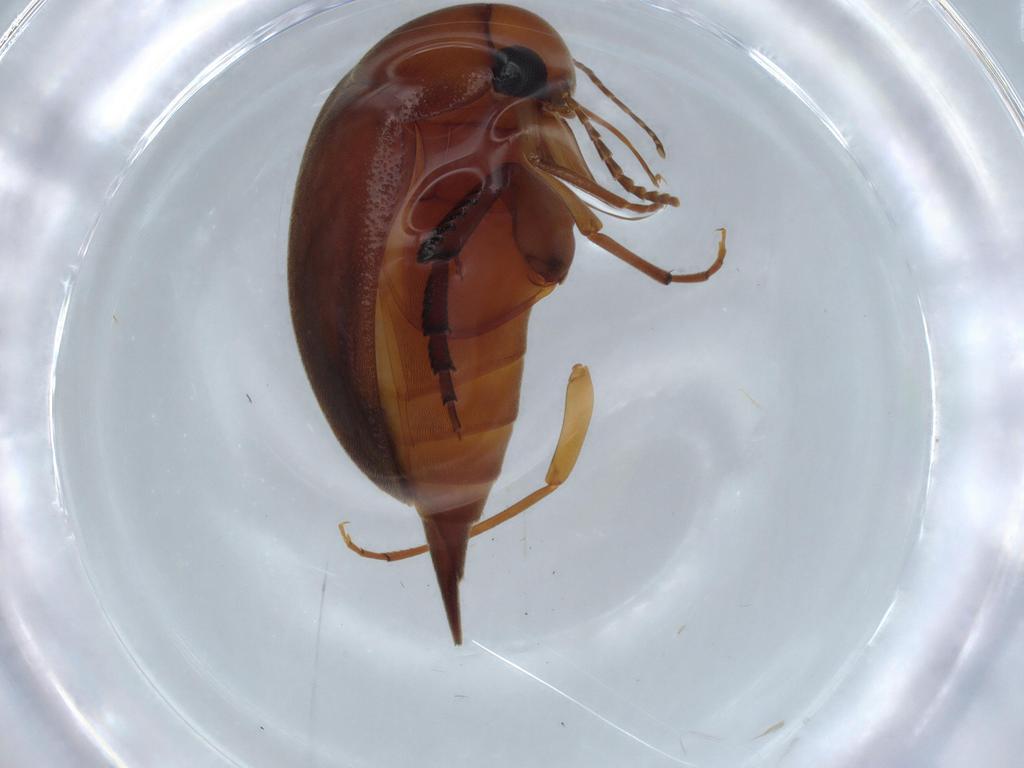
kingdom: Animalia
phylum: Arthropoda
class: Insecta
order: Coleoptera
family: Mordellidae
